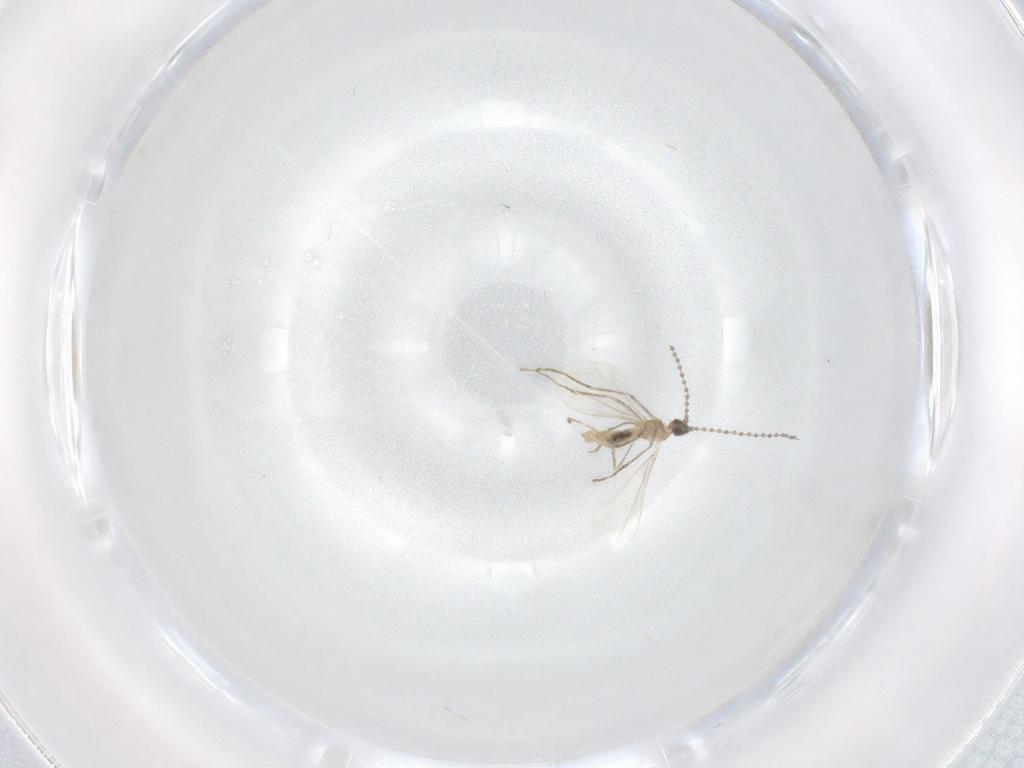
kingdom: Animalia
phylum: Arthropoda
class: Insecta
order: Diptera
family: Cecidomyiidae
